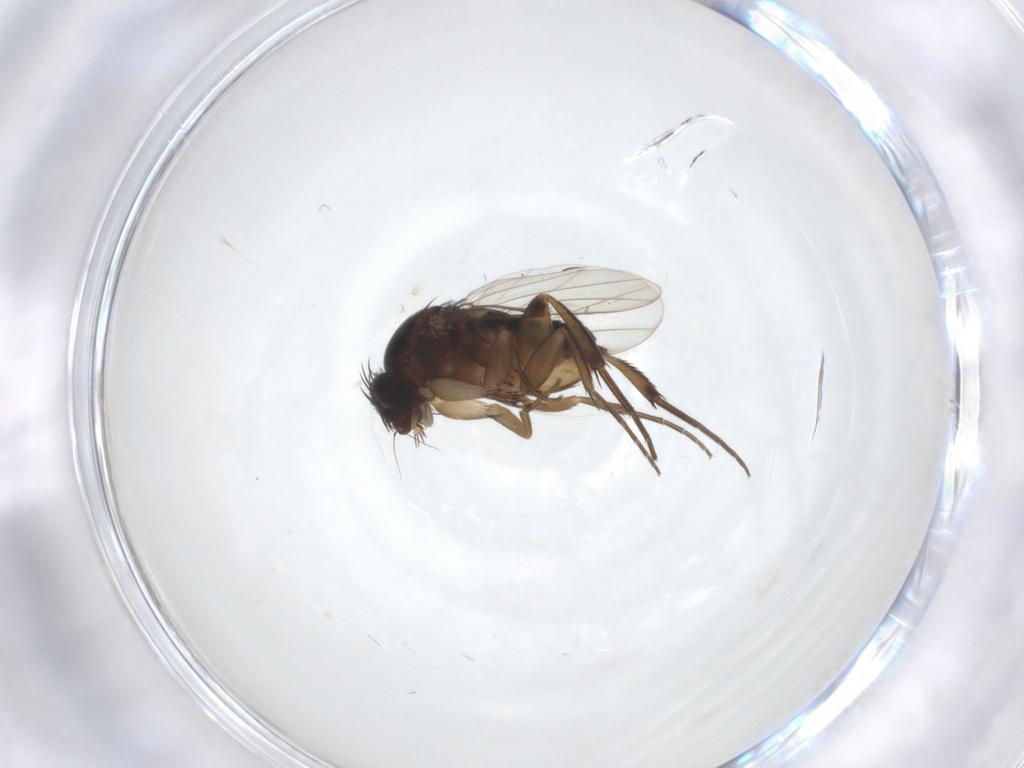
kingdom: Animalia
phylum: Arthropoda
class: Insecta
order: Diptera
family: Phoridae
